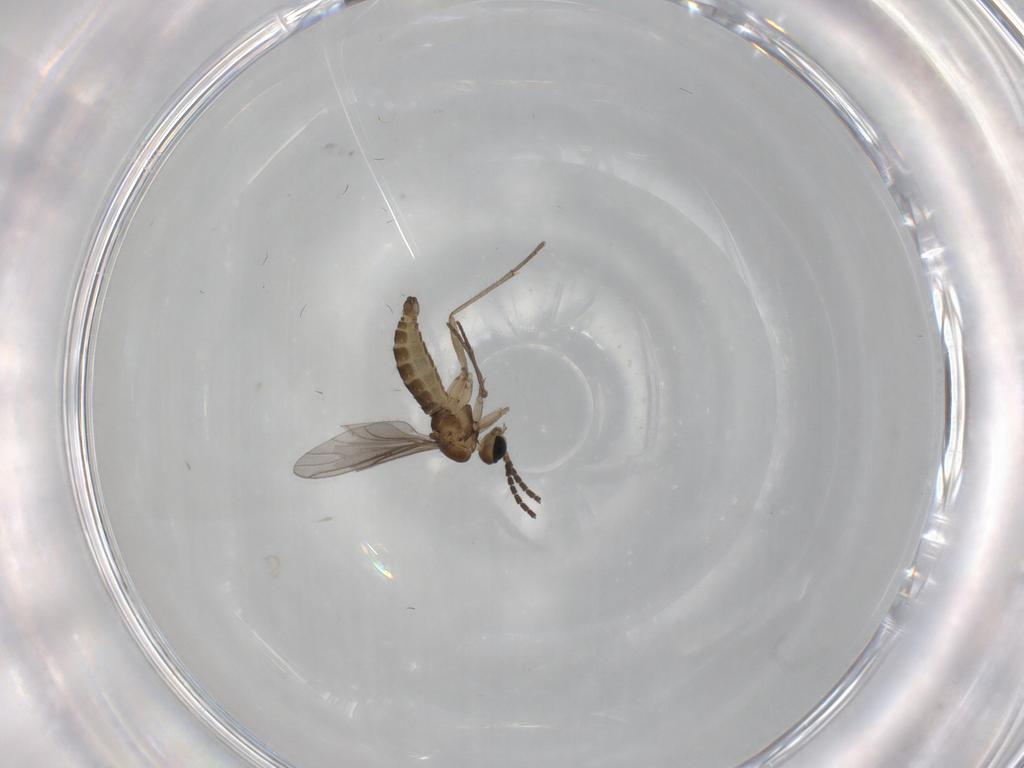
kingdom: Animalia
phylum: Arthropoda
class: Insecta
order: Diptera
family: Sciaridae
